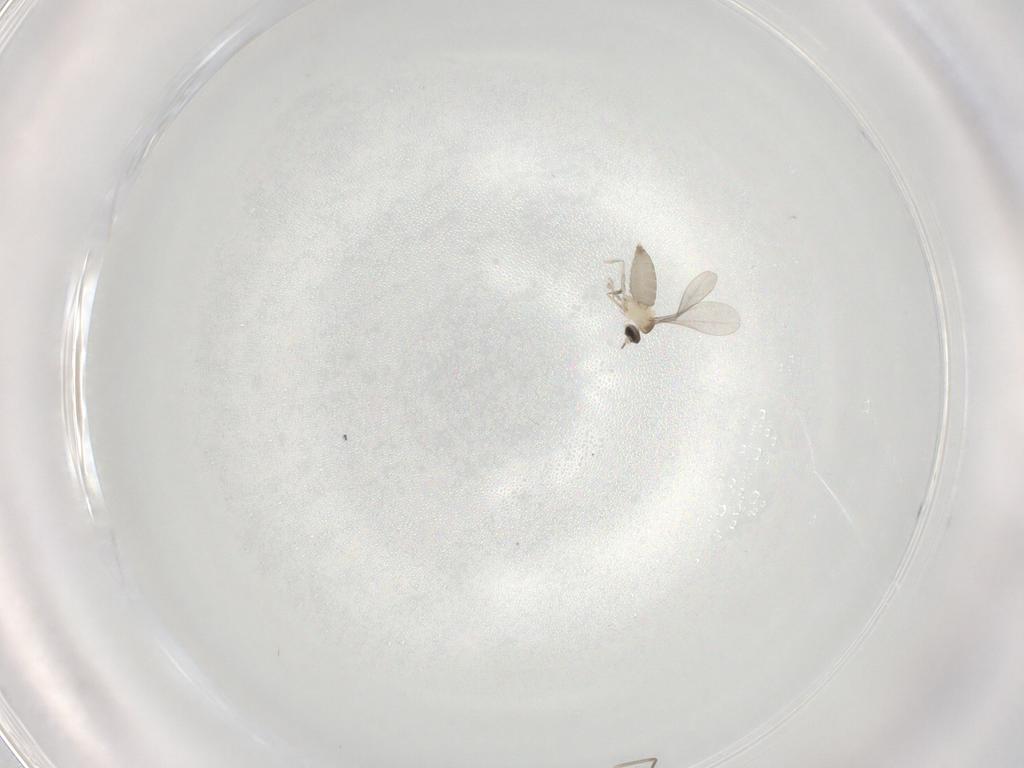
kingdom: Animalia
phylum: Arthropoda
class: Insecta
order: Diptera
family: Cecidomyiidae
